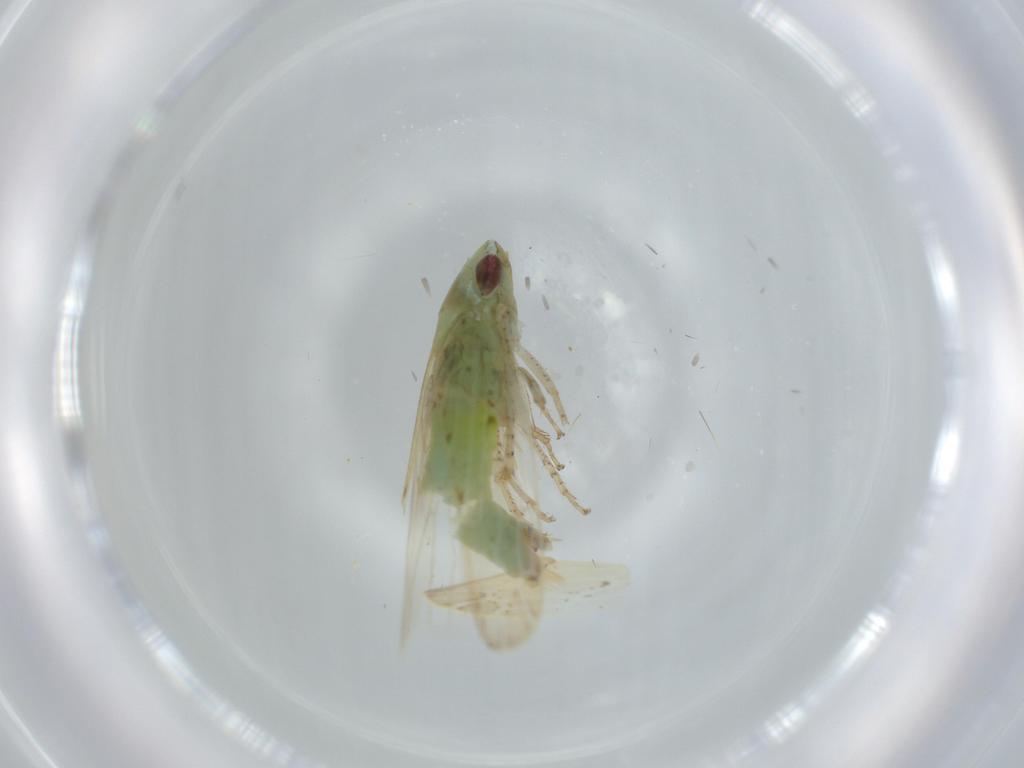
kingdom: Animalia
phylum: Arthropoda
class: Insecta
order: Hemiptera
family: Cicadellidae
